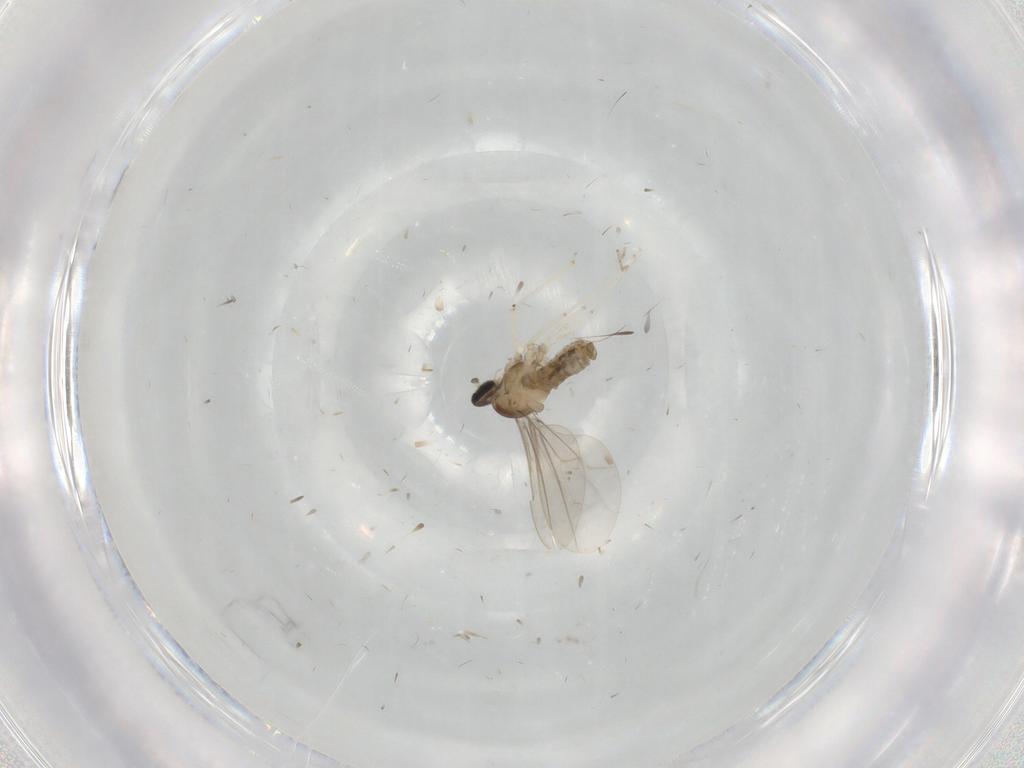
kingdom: Animalia
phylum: Arthropoda
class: Insecta
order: Diptera
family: Cecidomyiidae
